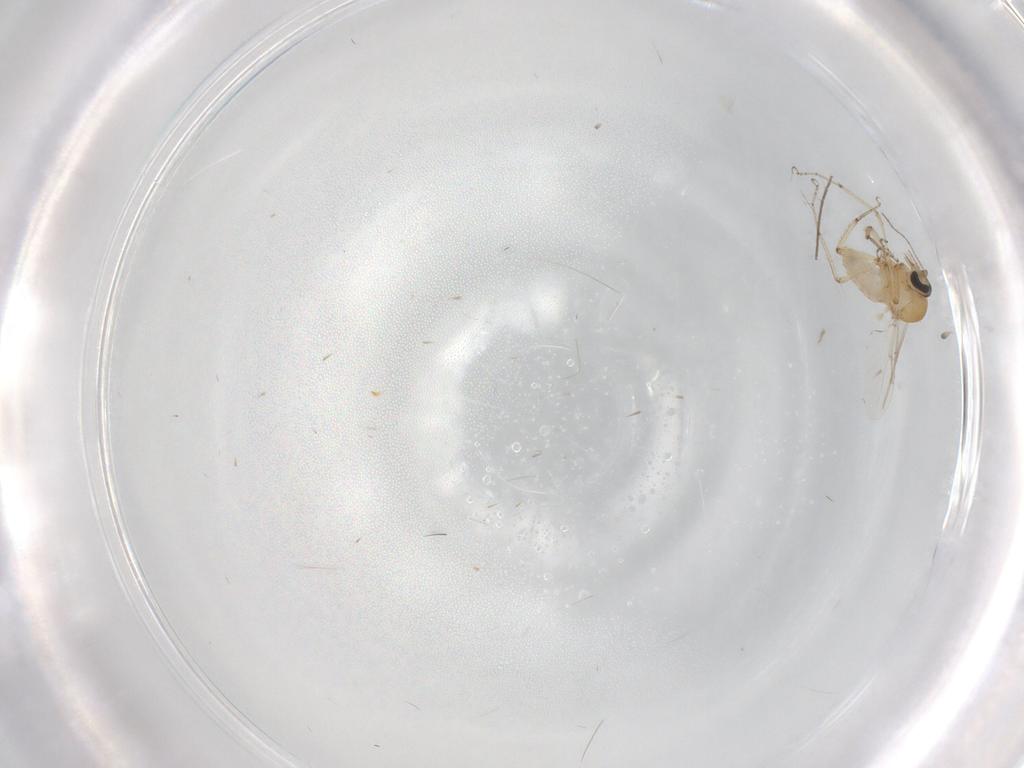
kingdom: Animalia
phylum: Arthropoda
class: Insecta
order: Diptera
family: Ceratopogonidae
